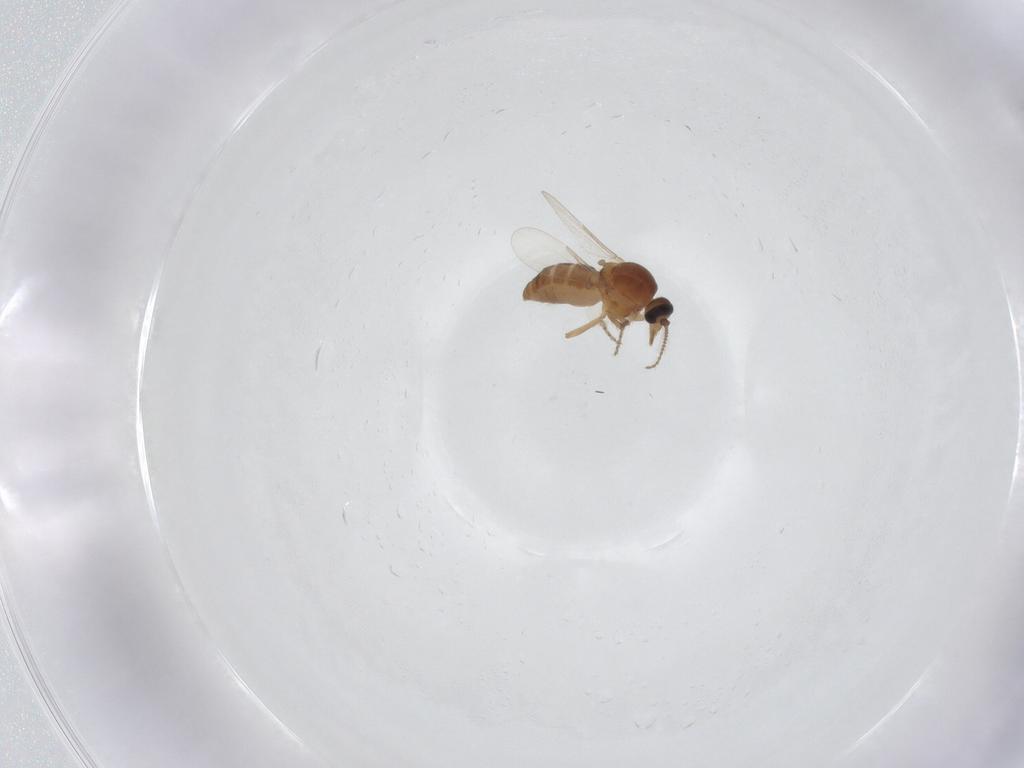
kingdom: Animalia
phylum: Arthropoda
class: Insecta
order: Diptera
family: Ceratopogonidae
